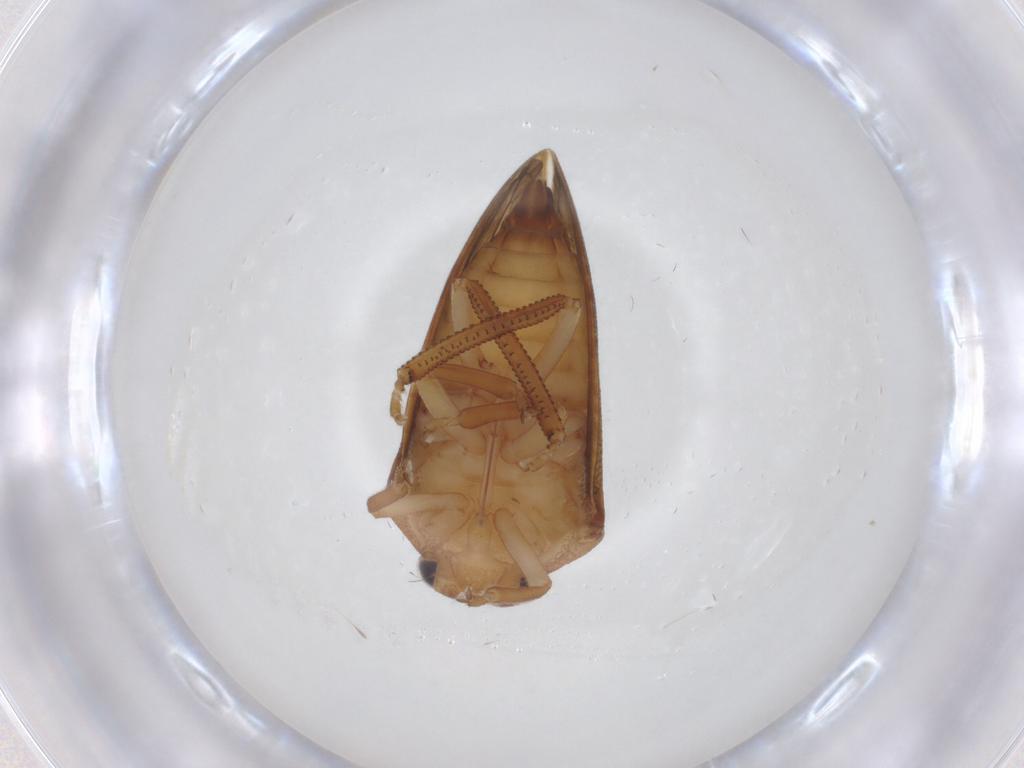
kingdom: Animalia
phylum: Arthropoda
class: Insecta
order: Hemiptera
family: Aetalionidae
